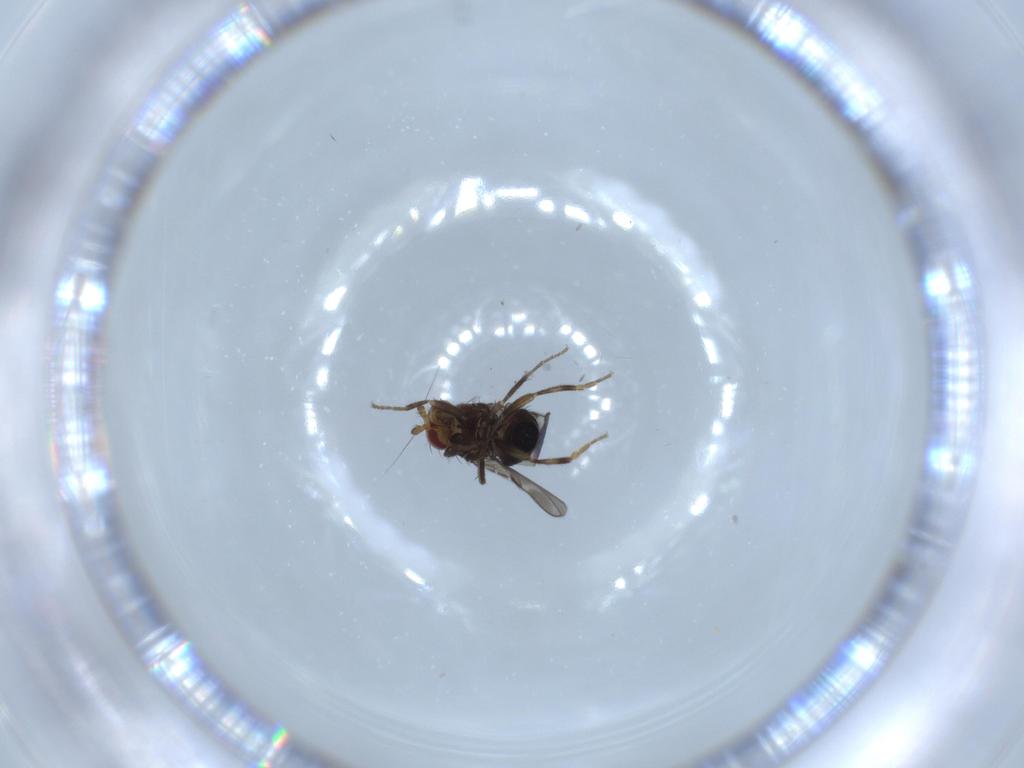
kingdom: Animalia
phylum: Arthropoda
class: Insecta
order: Diptera
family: Sphaeroceridae
